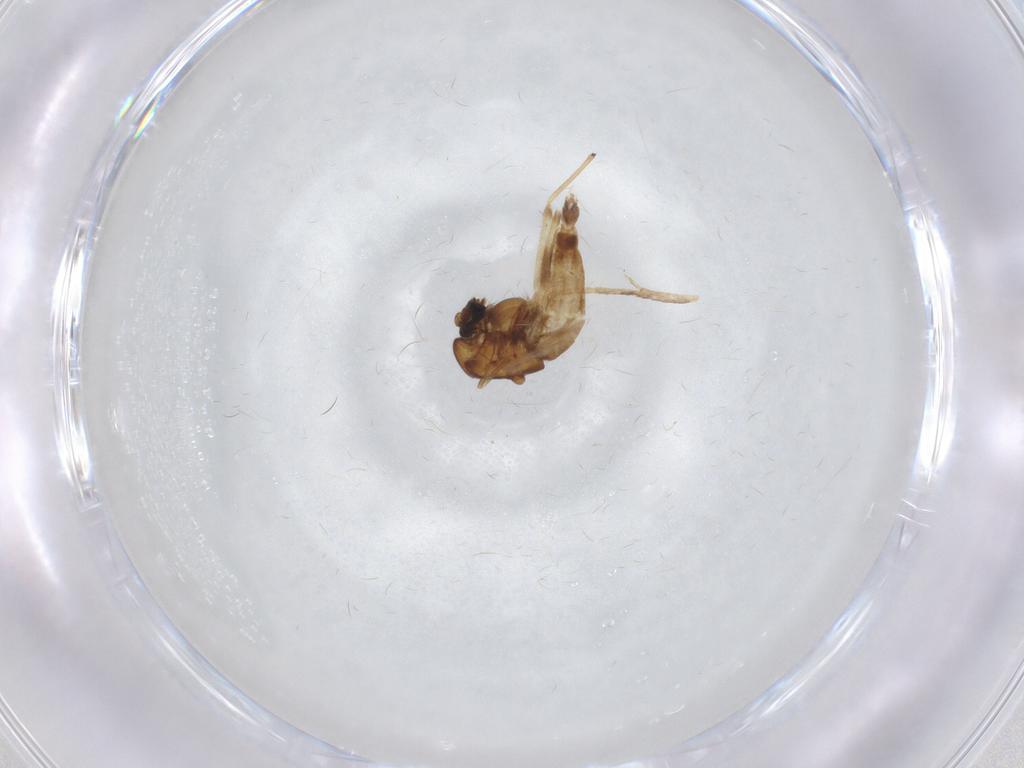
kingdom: Animalia
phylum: Arthropoda
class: Insecta
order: Diptera
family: Chironomidae
